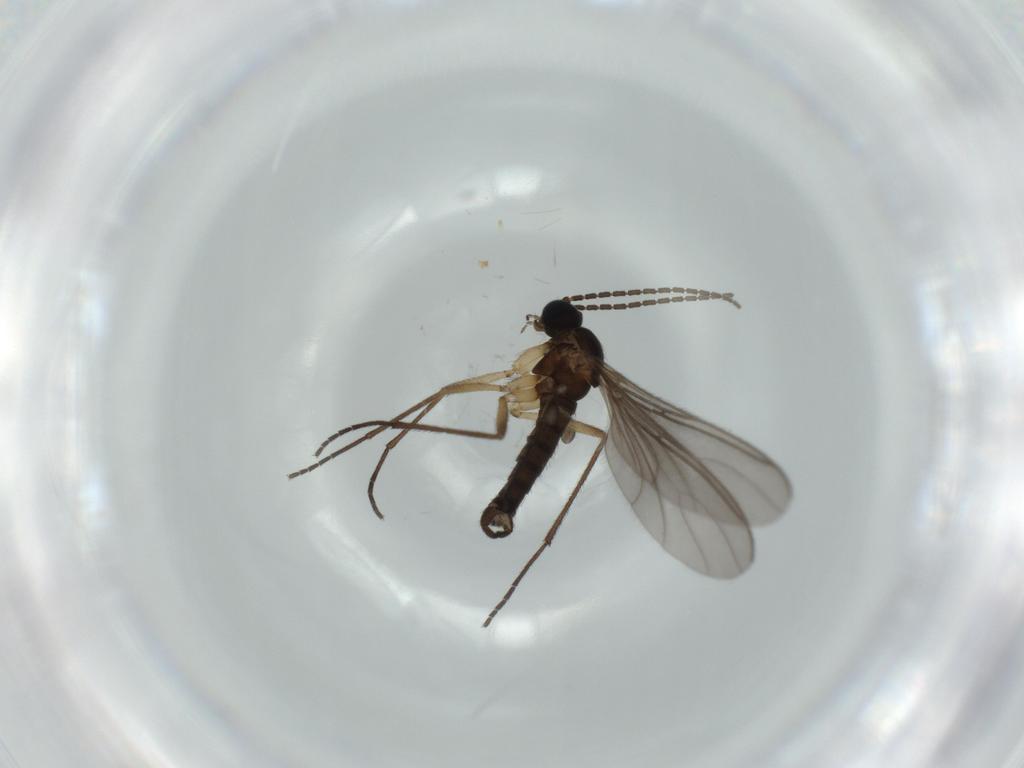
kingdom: Animalia
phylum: Arthropoda
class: Insecta
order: Diptera
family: Sciaridae
